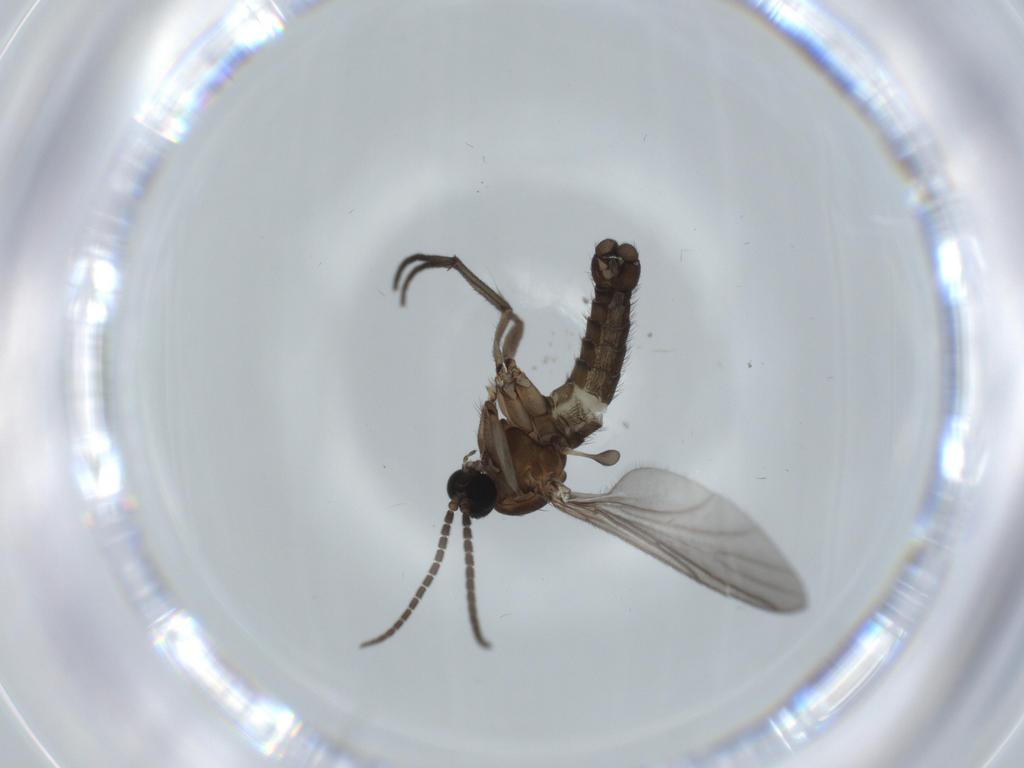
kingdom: Animalia
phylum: Arthropoda
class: Insecta
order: Diptera
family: Sciaridae
